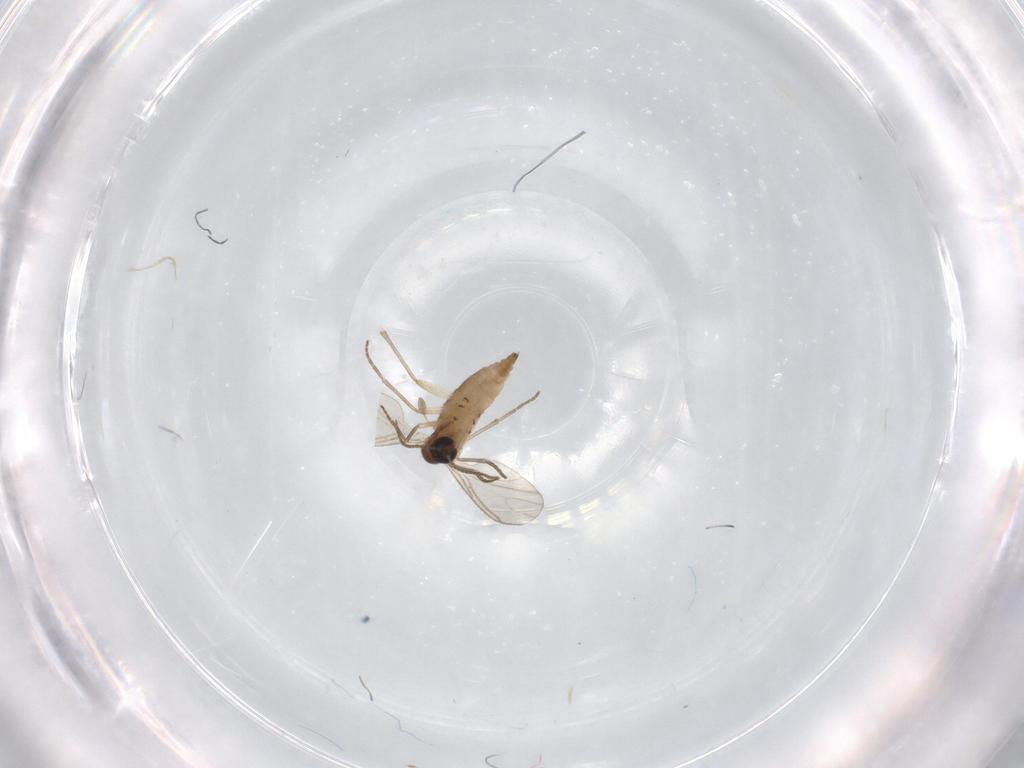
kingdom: Animalia
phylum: Arthropoda
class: Insecta
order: Diptera
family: Sciaridae
